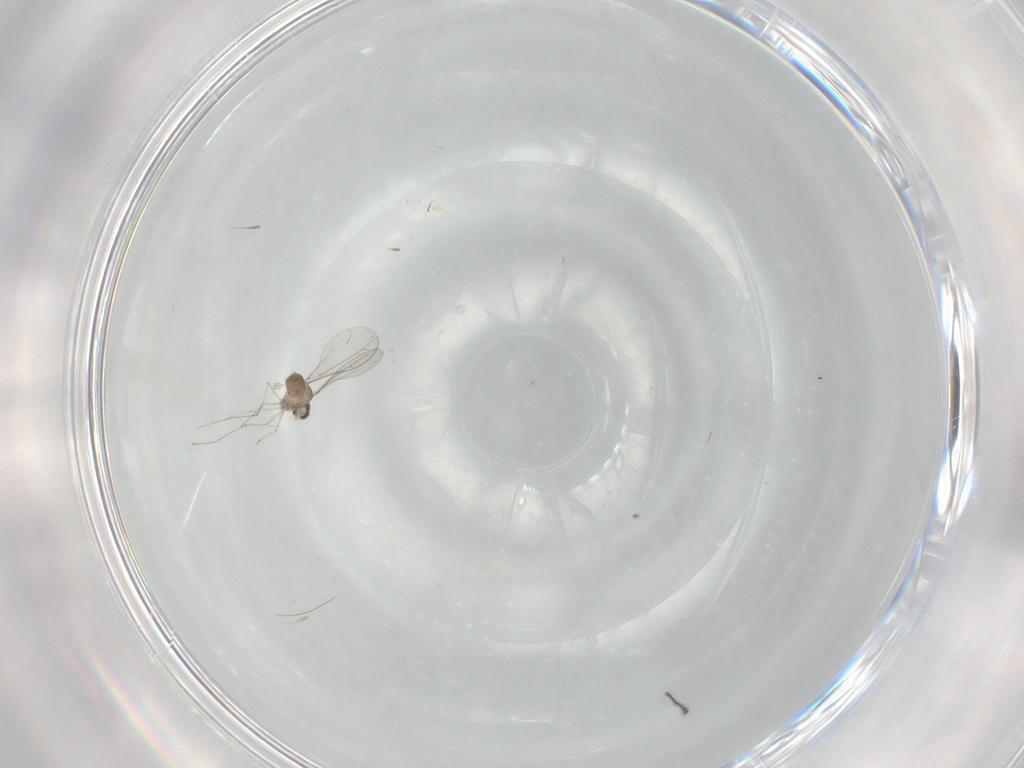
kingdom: Animalia
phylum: Arthropoda
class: Insecta
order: Diptera
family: Cecidomyiidae
